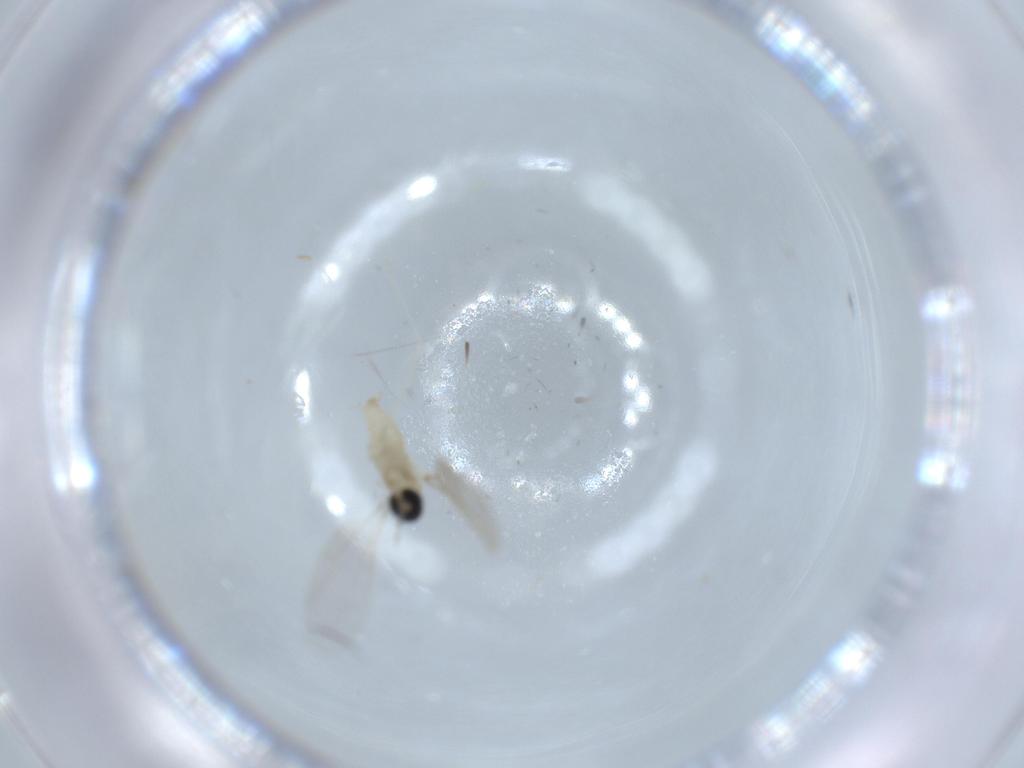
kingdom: Animalia
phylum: Arthropoda
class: Insecta
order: Diptera
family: Cecidomyiidae
